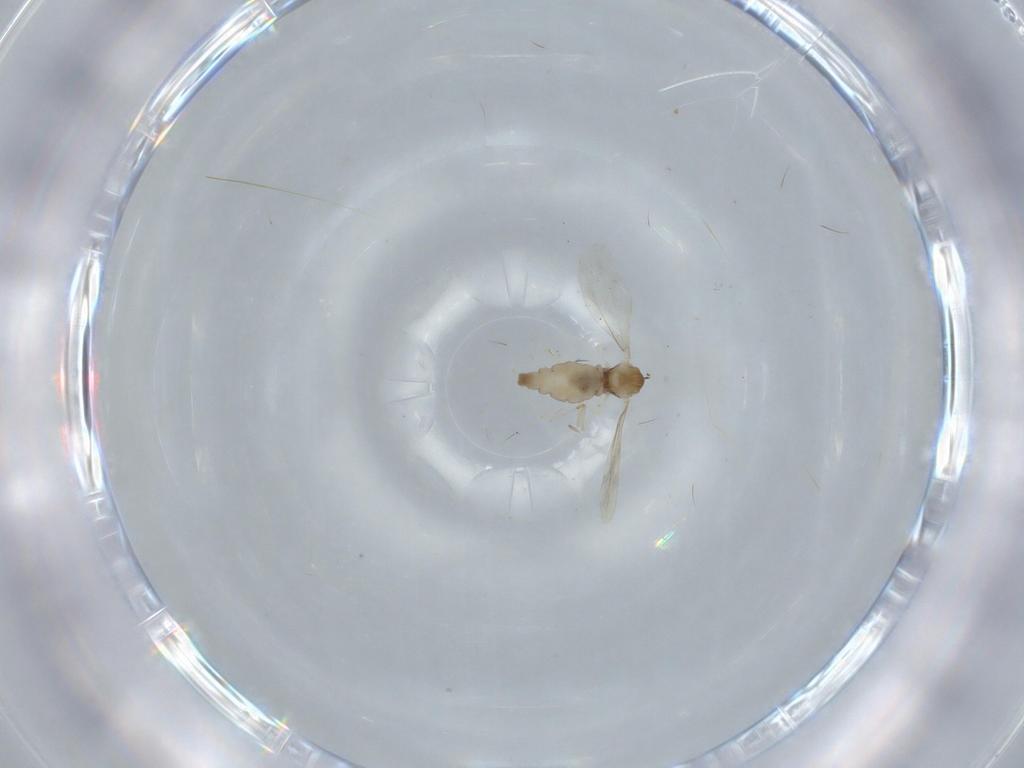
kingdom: Animalia
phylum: Arthropoda
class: Insecta
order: Diptera
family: Cecidomyiidae
